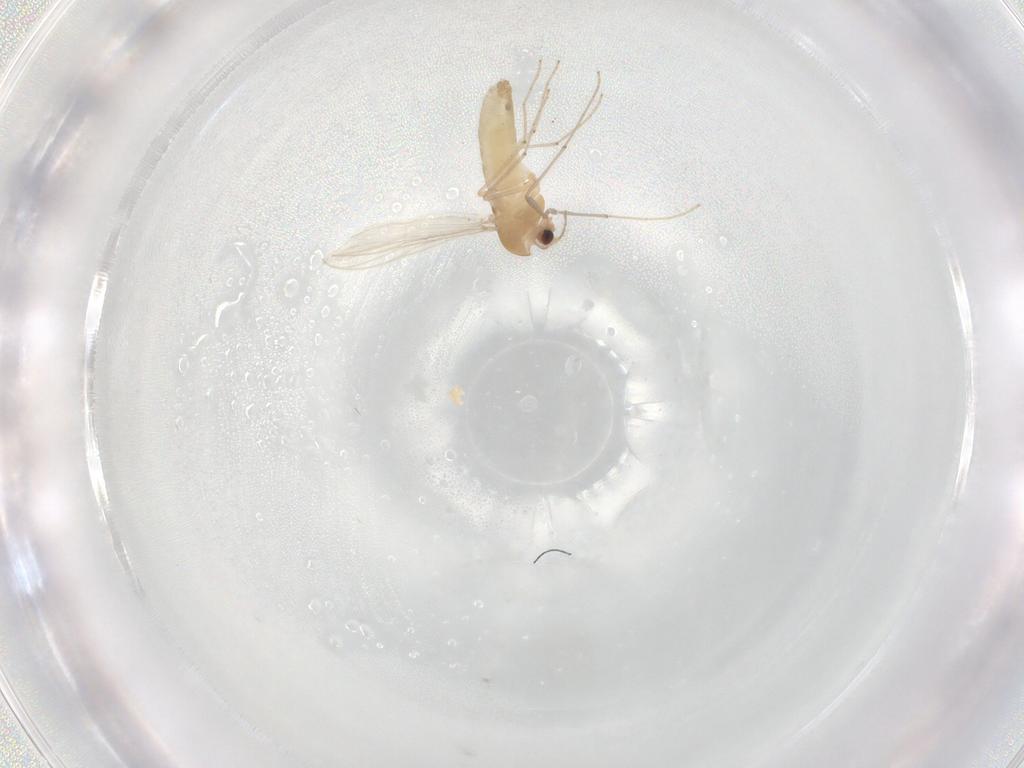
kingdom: Animalia
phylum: Arthropoda
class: Insecta
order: Diptera
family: Chironomidae
